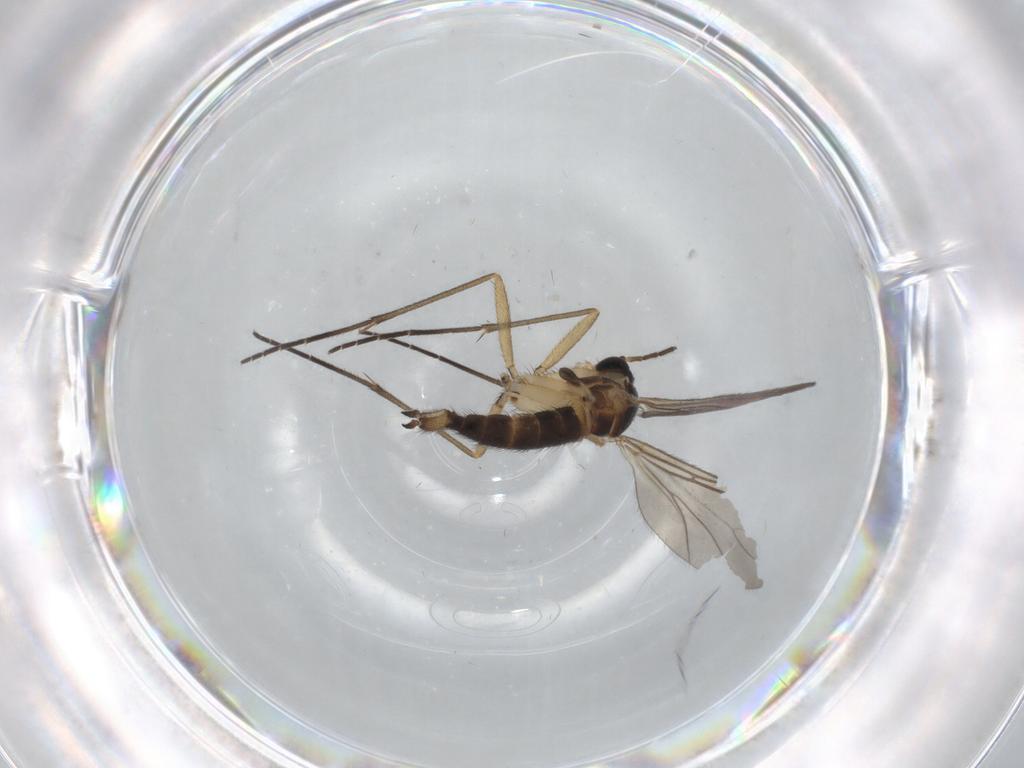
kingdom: Animalia
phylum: Arthropoda
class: Insecta
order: Diptera
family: Sciaridae
